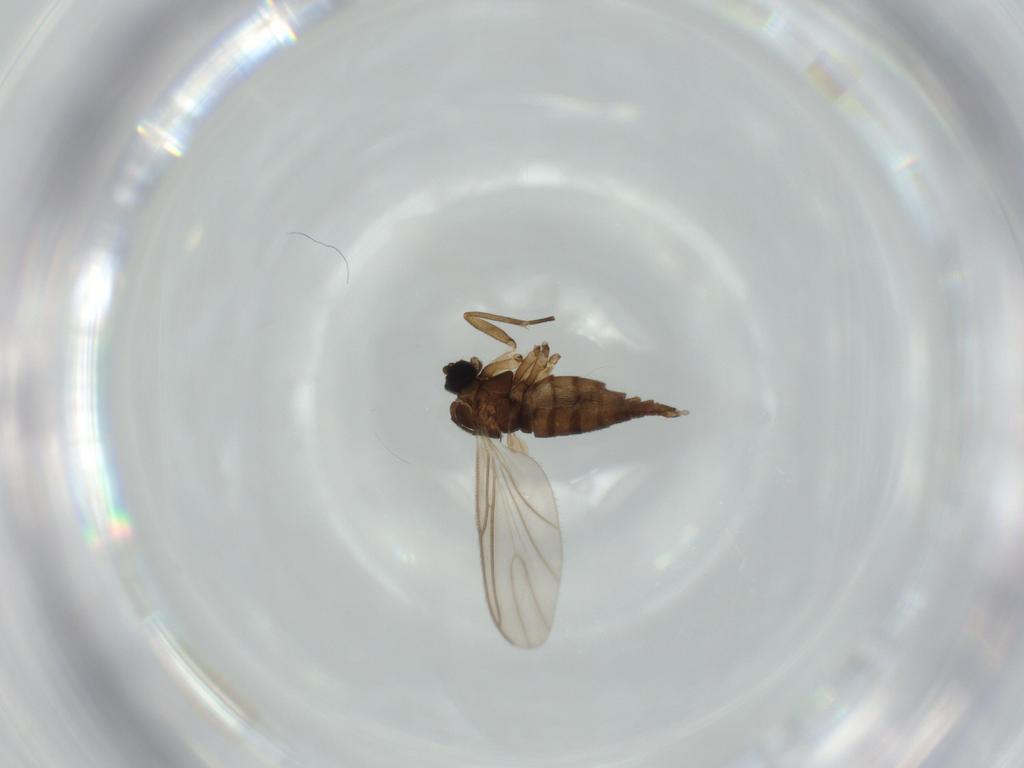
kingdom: Animalia
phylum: Arthropoda
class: Insecta
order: Diptera
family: Sciaridae
